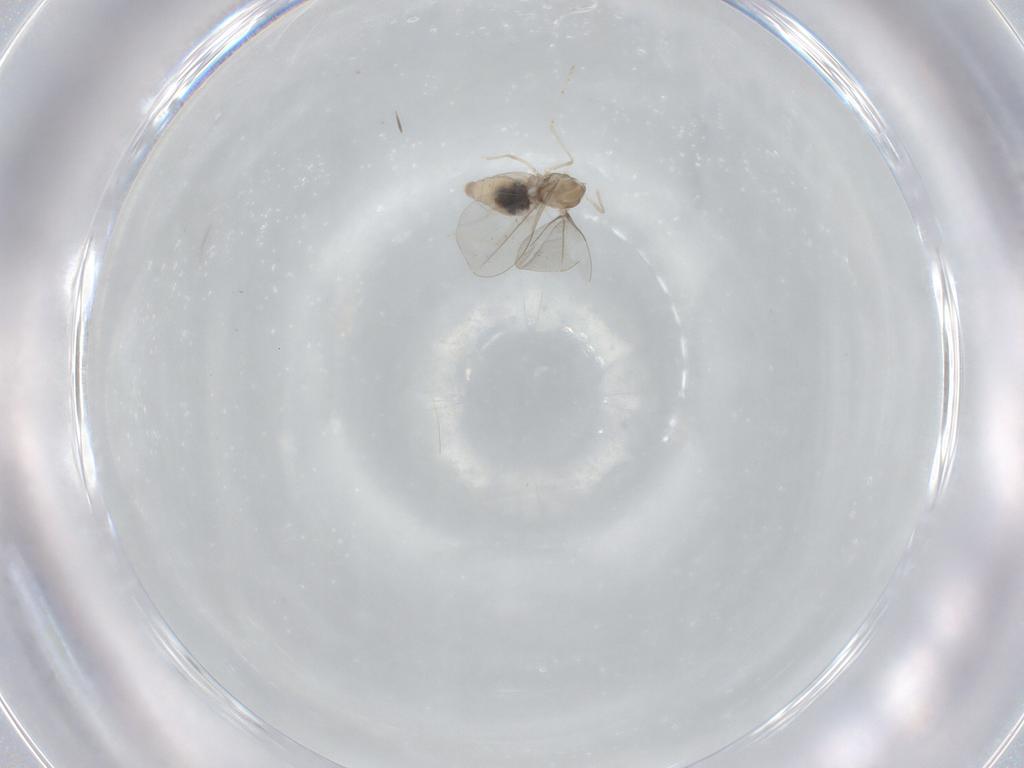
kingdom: Animalia
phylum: Arthropoda
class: Insecta
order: Diptera
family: Cecidomyiidae
